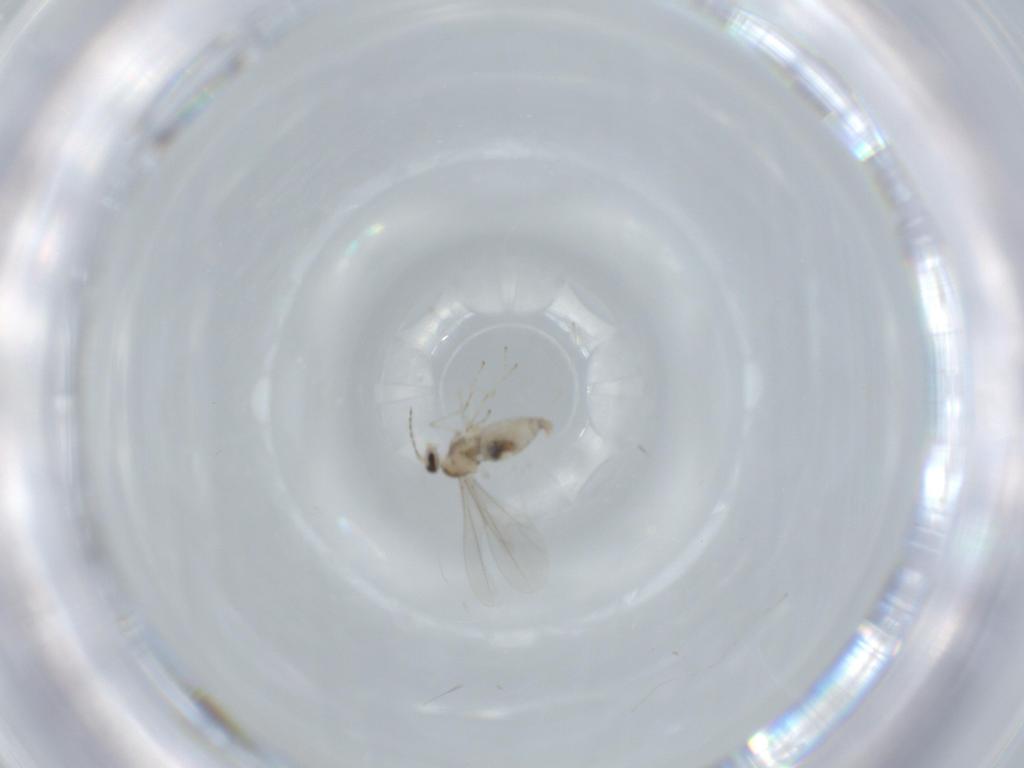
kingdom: Animalia
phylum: Arthropoda
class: Insecta
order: Diptera
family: Cecidomyiidae
